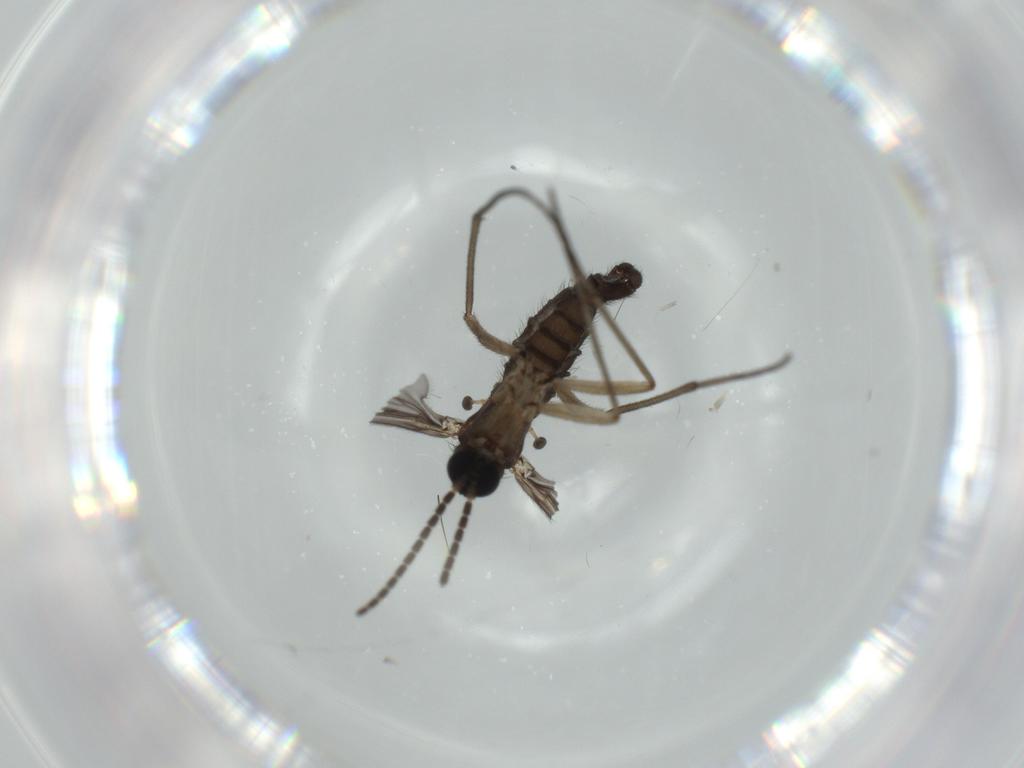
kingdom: Animalia
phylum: Arthropoda
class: Insecta
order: Diptera
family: Sciaridae
